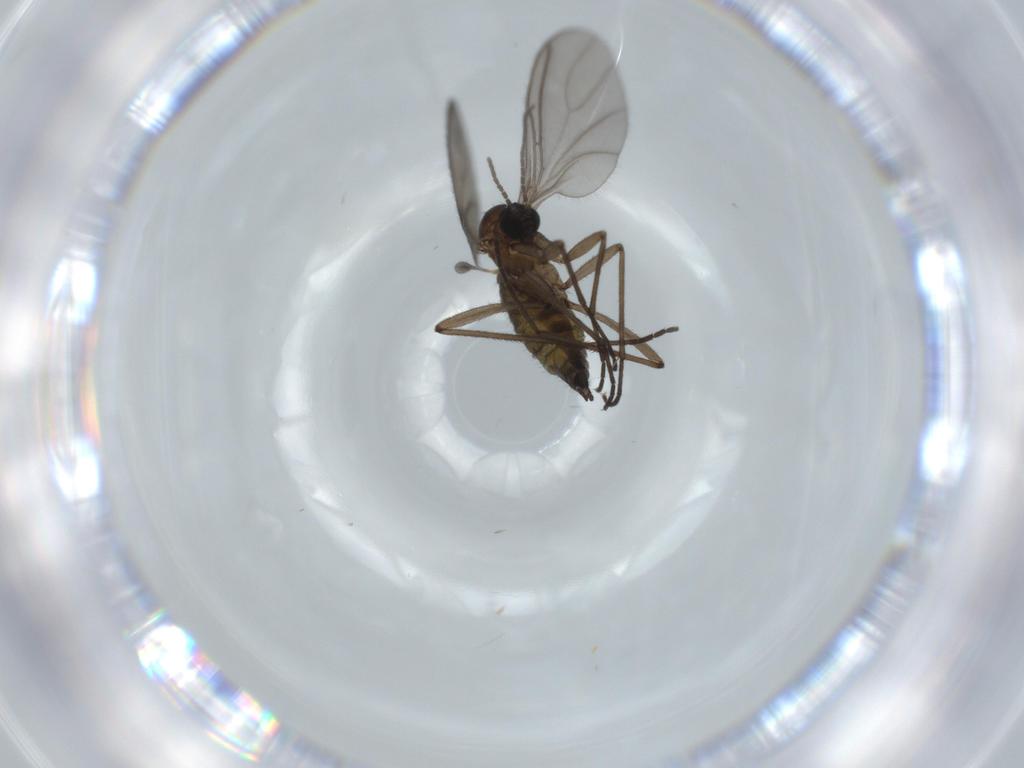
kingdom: Animalia
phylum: Arthropoda
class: Insecta
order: Diptera
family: Sciaridae
